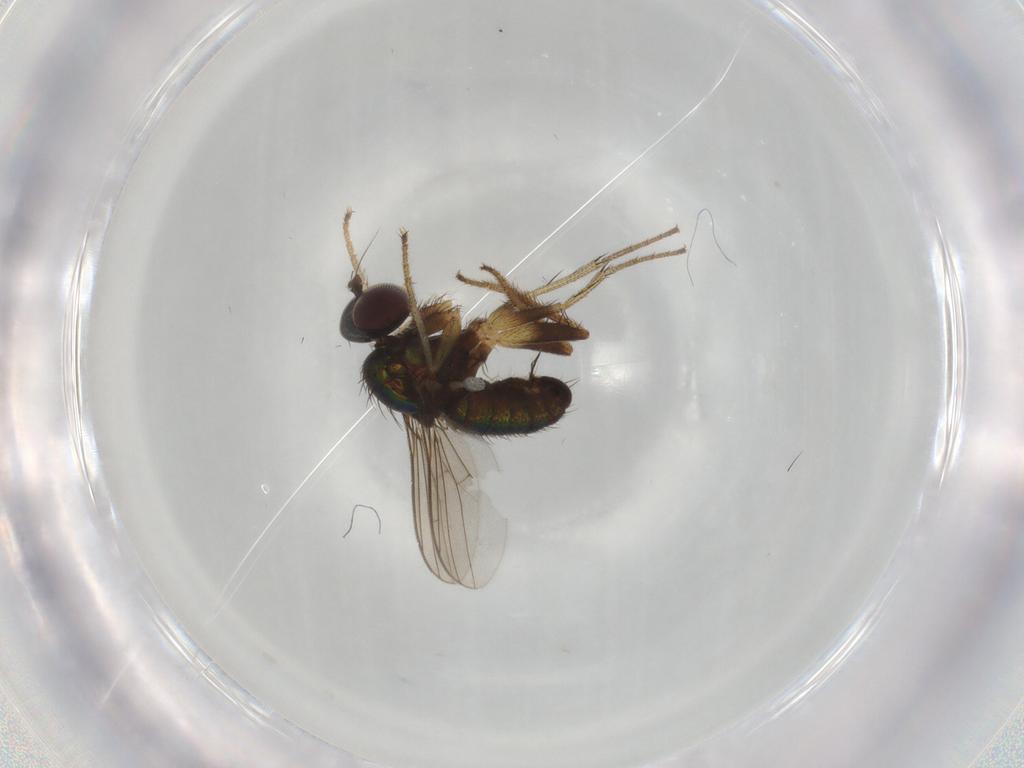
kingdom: Animalia
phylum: Arthropoda
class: Insecta
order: Diptera
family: Dolichopodidae
